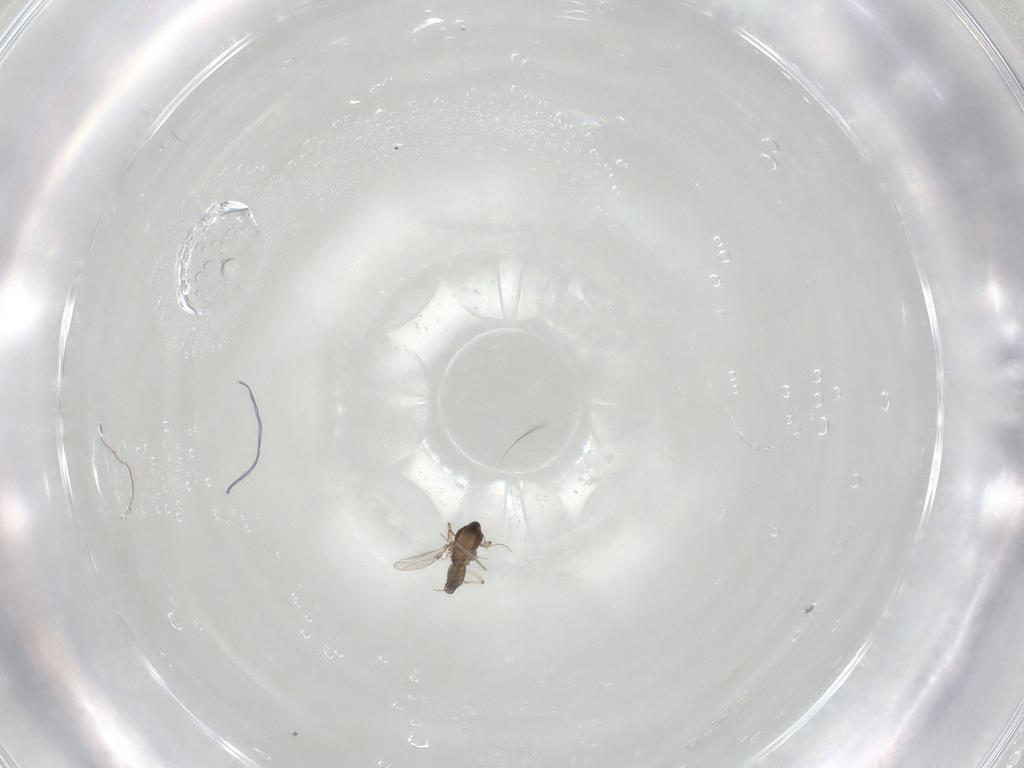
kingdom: Animalia
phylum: Arthropoda
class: Insecta
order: Diptera
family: Chironomidae
